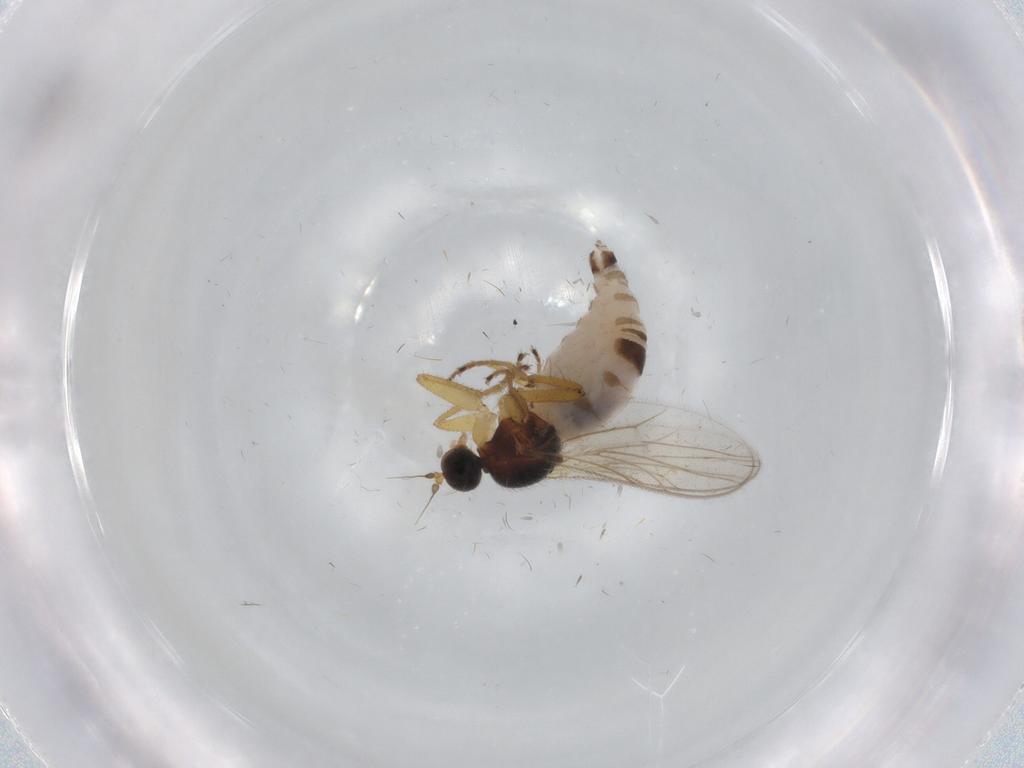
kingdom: Animalia
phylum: Arthropoda
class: Insecta
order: Diptera
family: Hybotidae
